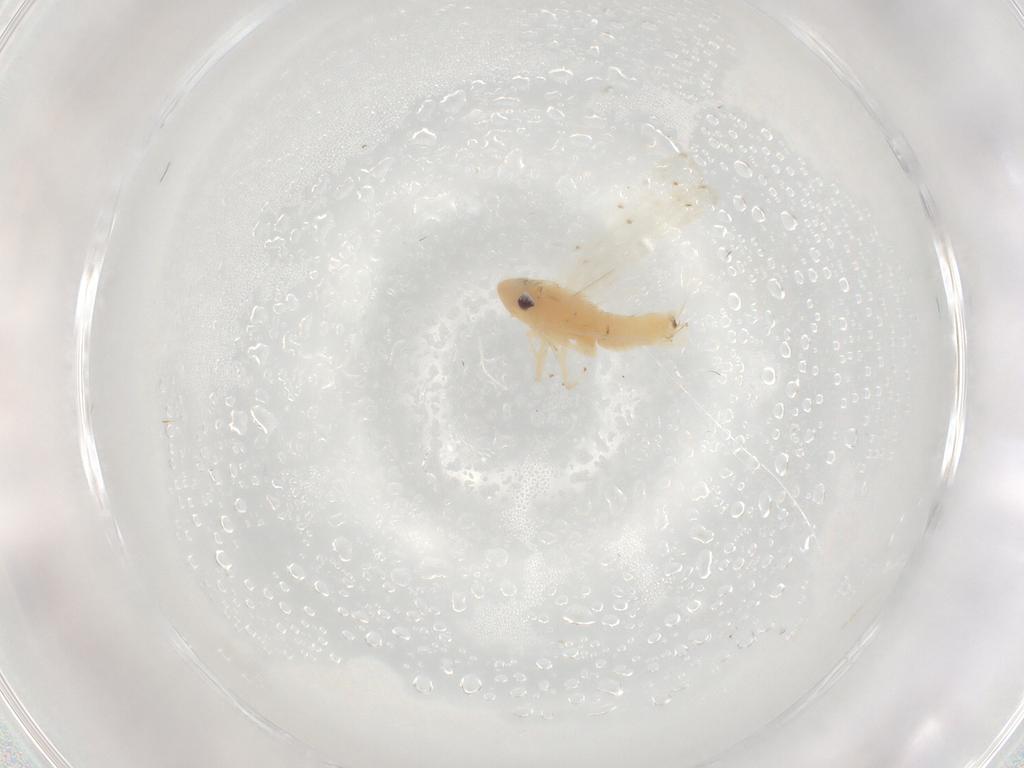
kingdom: Animalia
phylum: Arthropoda
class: Insecta
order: Hemiptera
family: Cicadellidae
